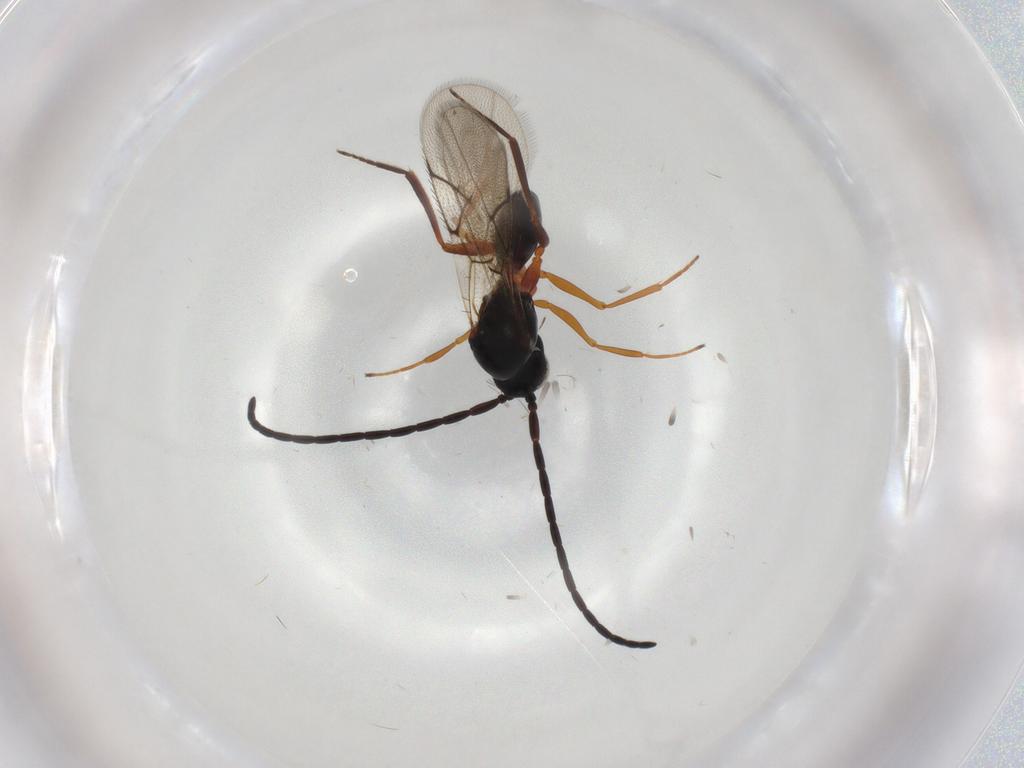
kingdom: Animalia
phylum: Arthropoda
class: Insecta
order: Hymenoptera
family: Figitidae
